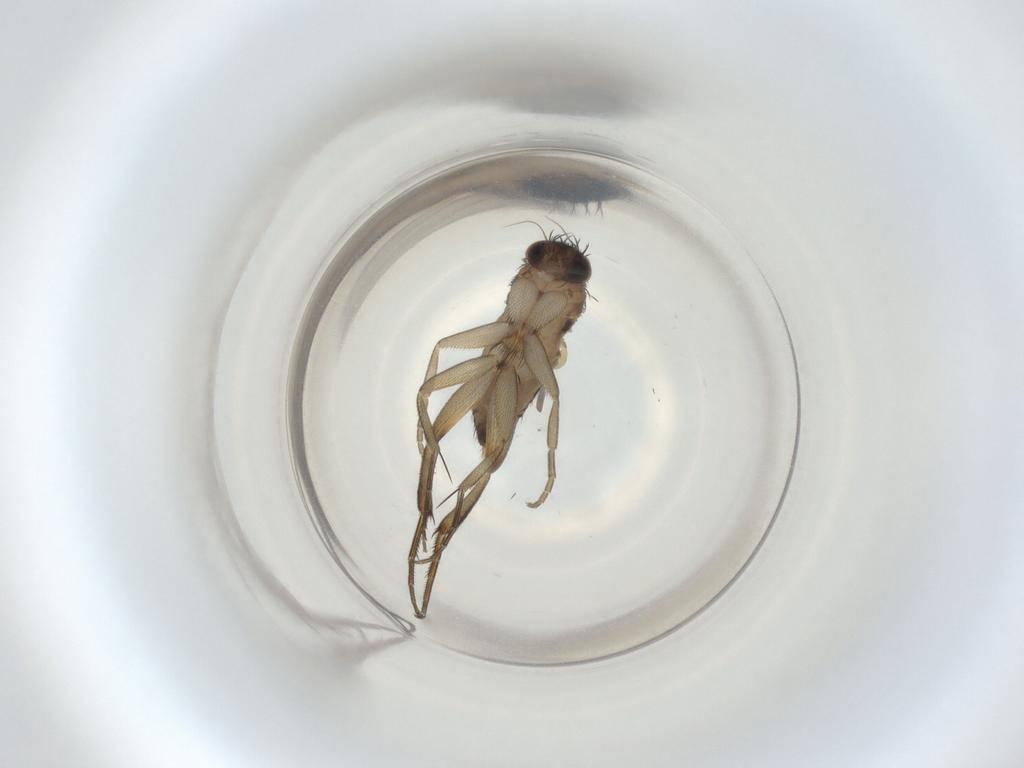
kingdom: Animalia
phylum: Arthropoda
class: Insecta
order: Diptera
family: Phoridae
